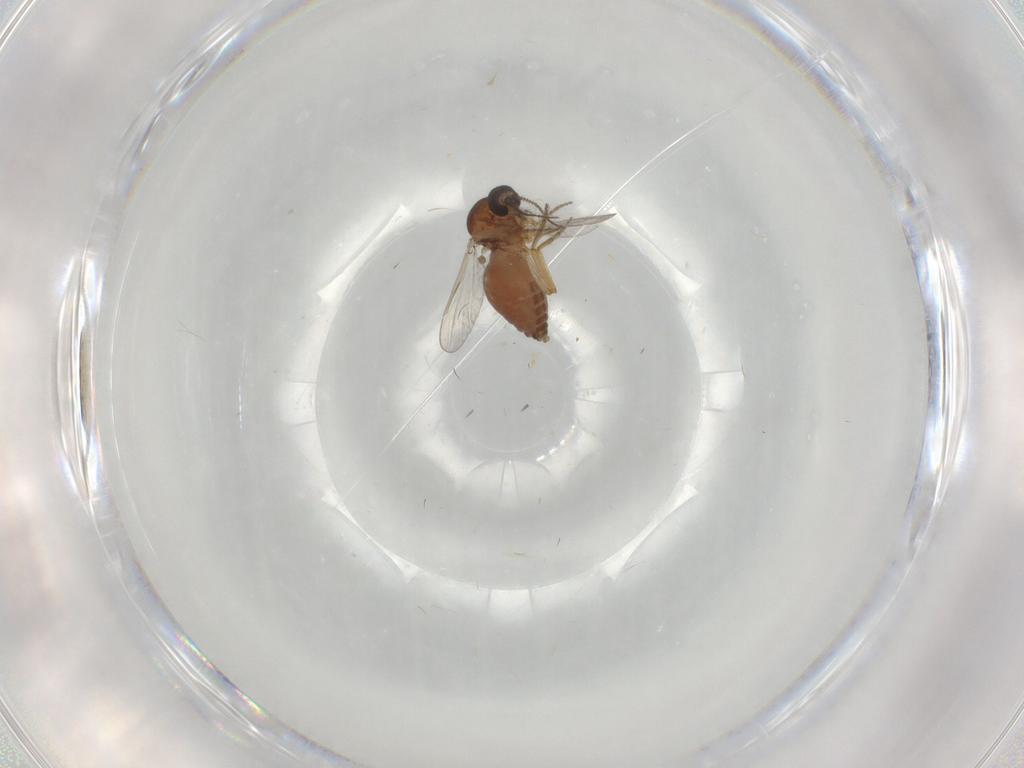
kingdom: Animalia
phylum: Arthropoda
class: Insecta
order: Diptera
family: Ceratopogonidae
